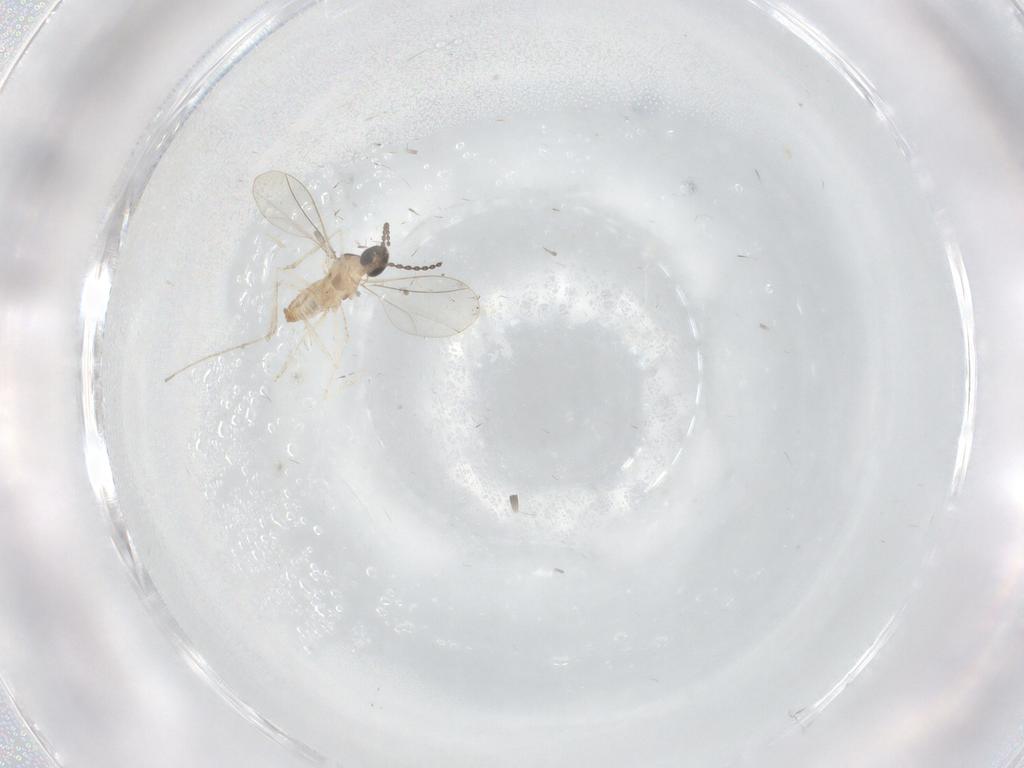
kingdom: Animalia
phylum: Arthropoda
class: Insecta
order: Diptera
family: Cecidomyiidae
